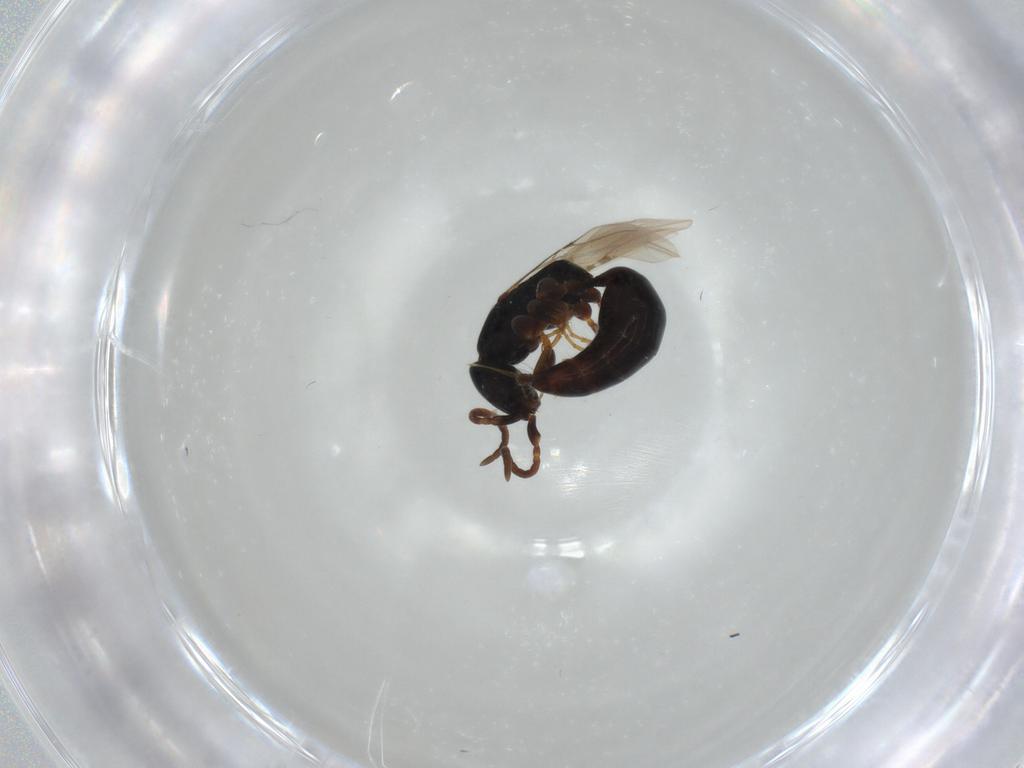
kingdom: Animalia
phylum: Arthropoda
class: Insecta
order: Hymenoptera
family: Bethylidae
